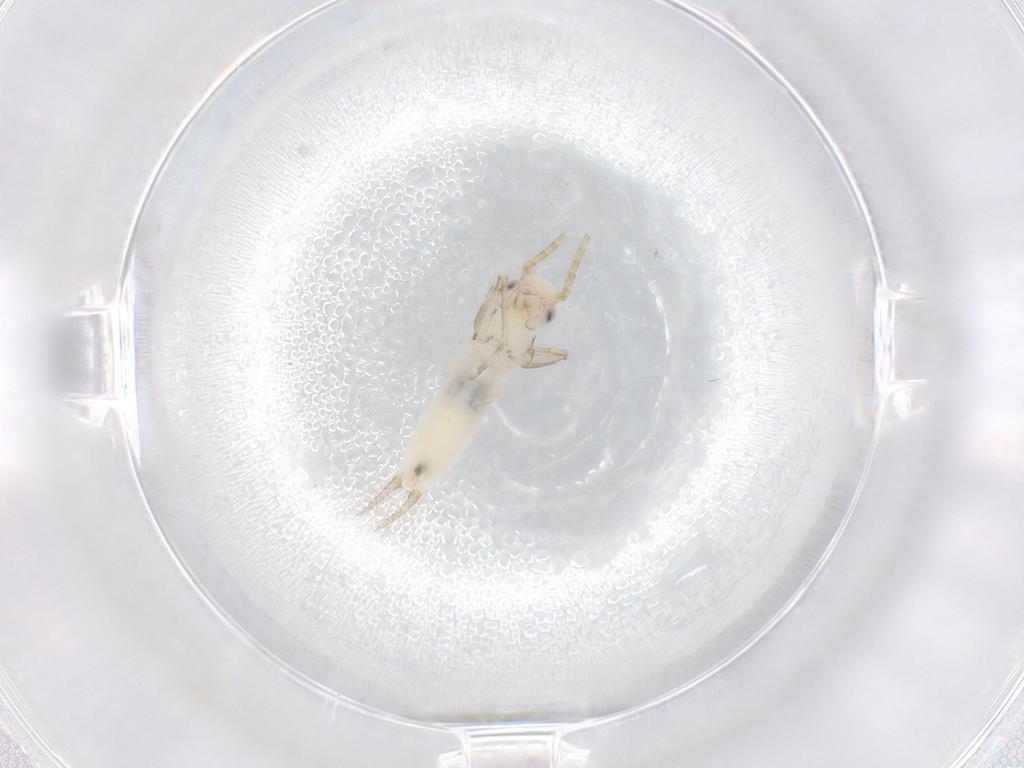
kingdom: Animalia
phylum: Arthropoda
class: Insecta
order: Orthoptera
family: Trigonidiidae
